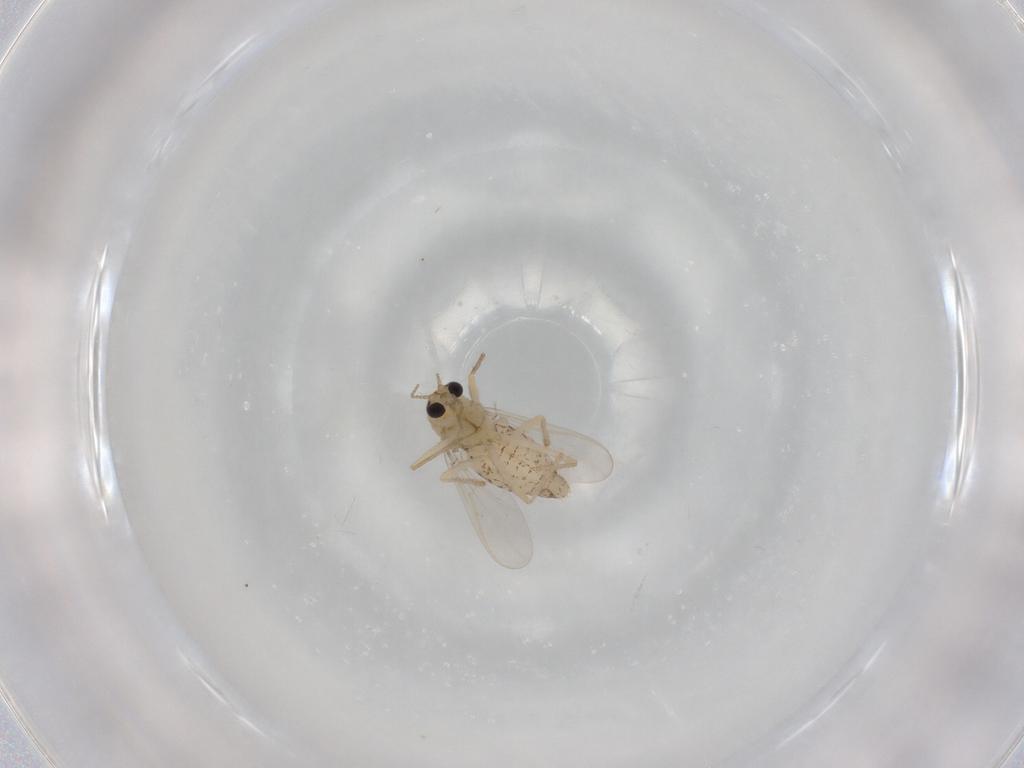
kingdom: Animalia
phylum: Arthropoda
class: Insecta
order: Diptera
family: Chironomidae
